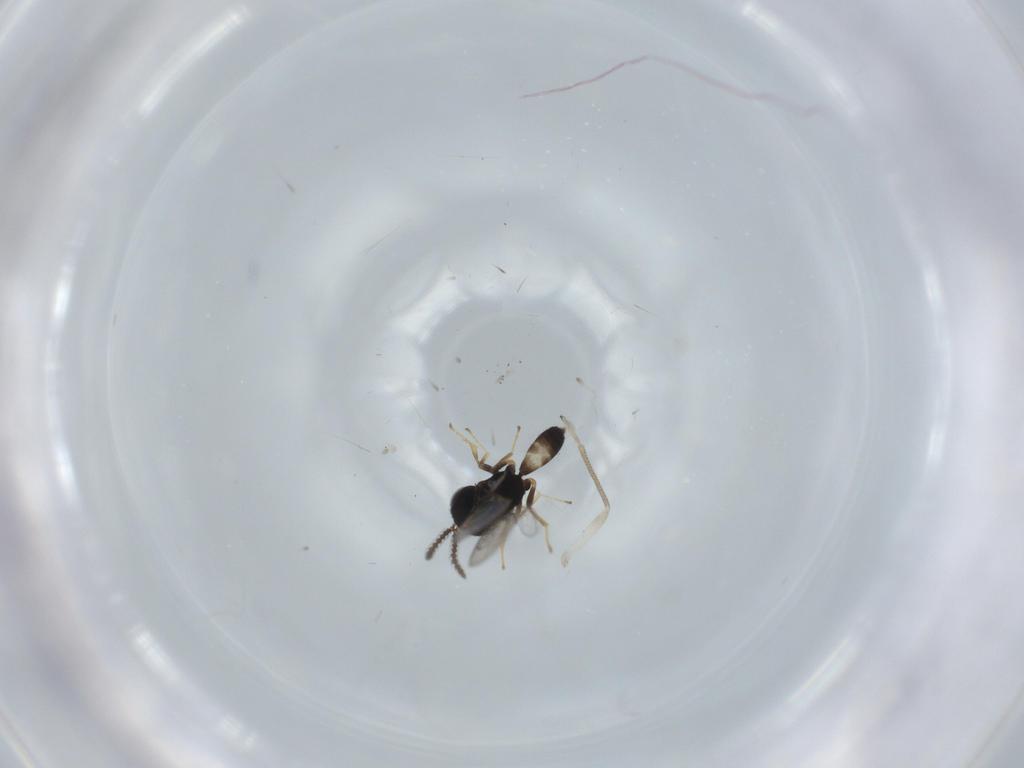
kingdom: Animalia
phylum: Arthropoda
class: Insecta
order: Hymenoptera
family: Pteromalidae
